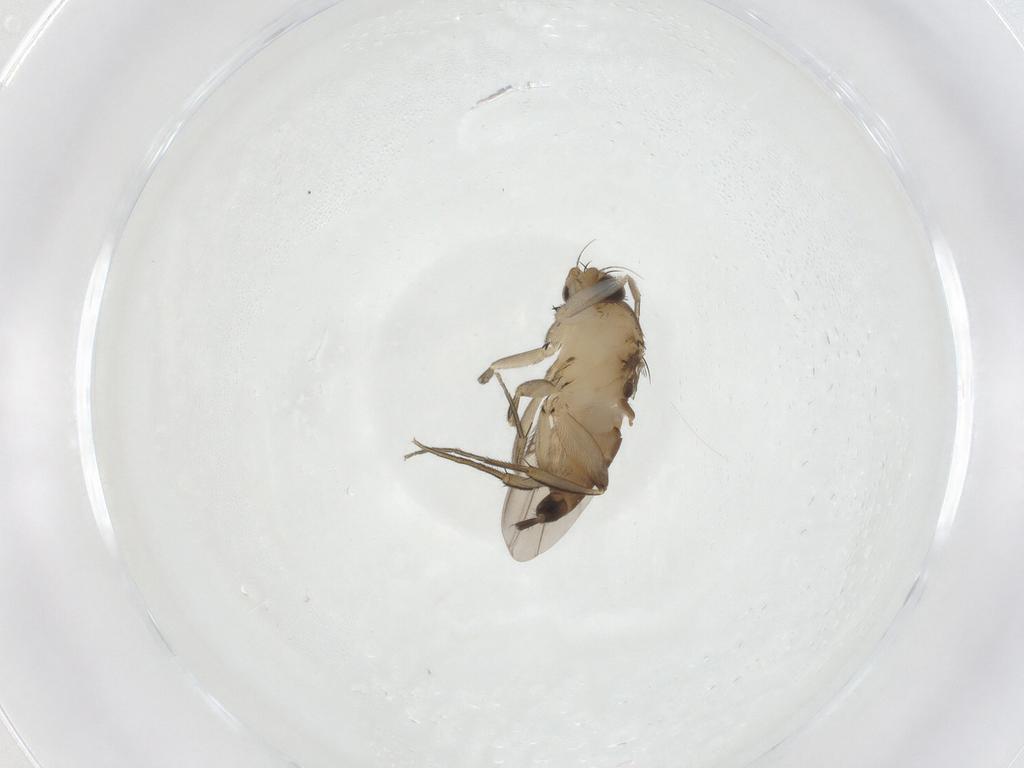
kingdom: Animalia
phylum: Arthropoda
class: Insecta
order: Diptera
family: Phoridae
